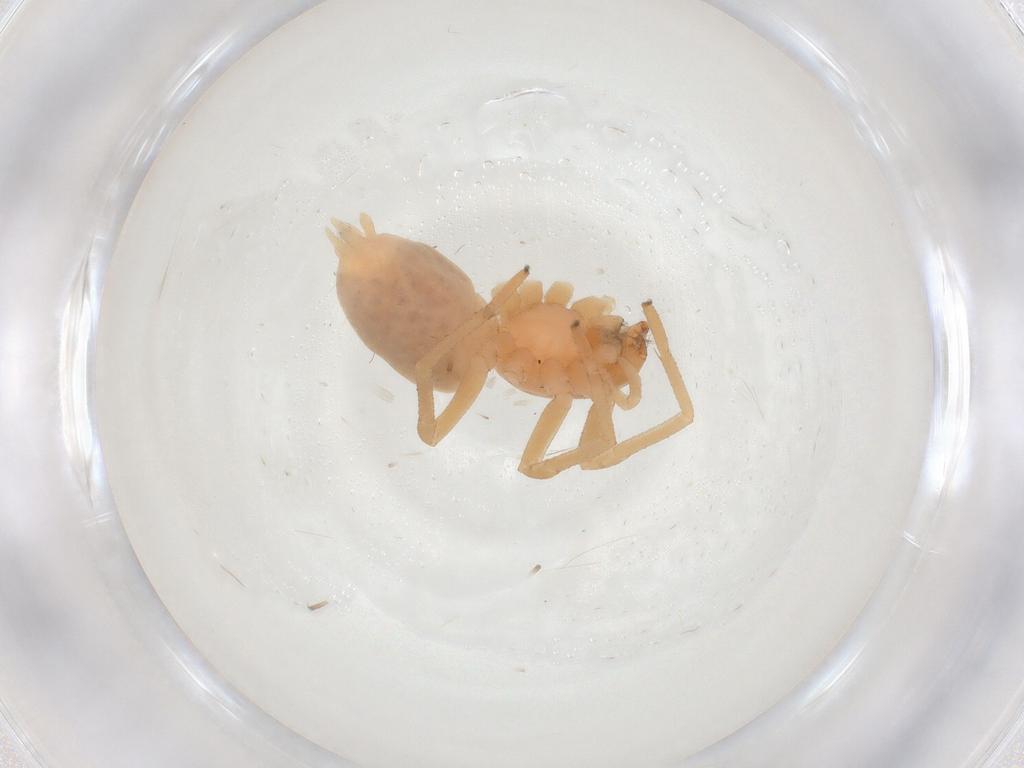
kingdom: Animalia
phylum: Arthropoda
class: Arachnida
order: Araneae
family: Cheiracanthiidae
